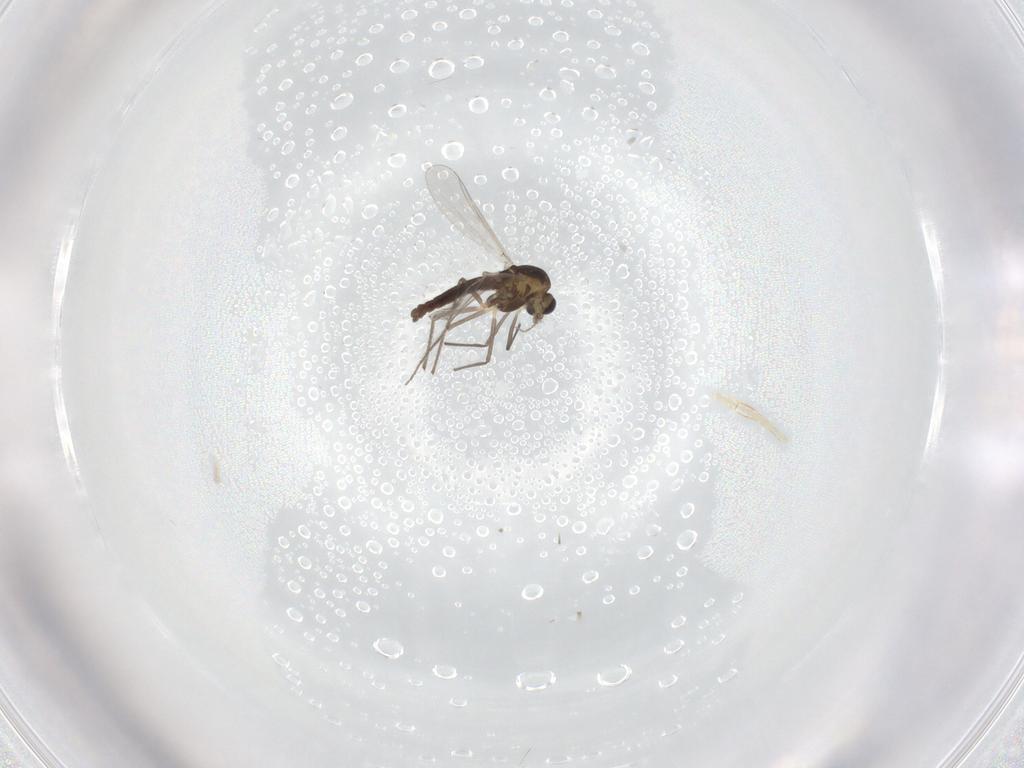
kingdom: Animalia
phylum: Arthropoda
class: Insecta
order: Diptera
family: Chironomidae
